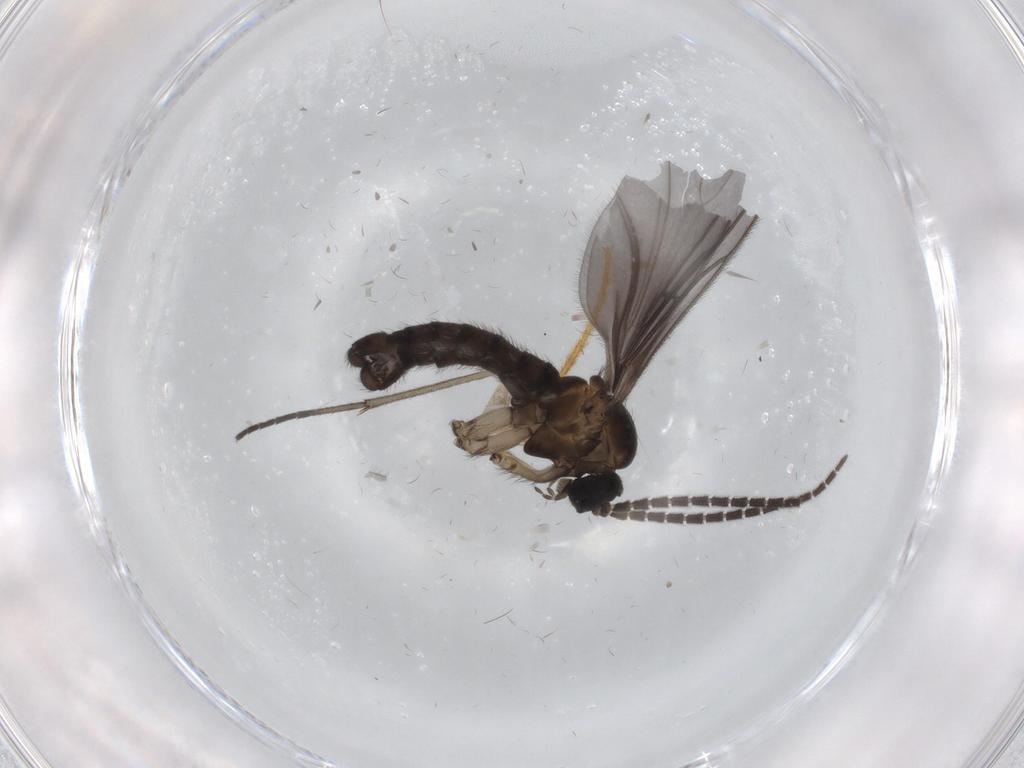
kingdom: Animalia
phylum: Arthropoda
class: Insecta
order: Diptera
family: Sciaridae
